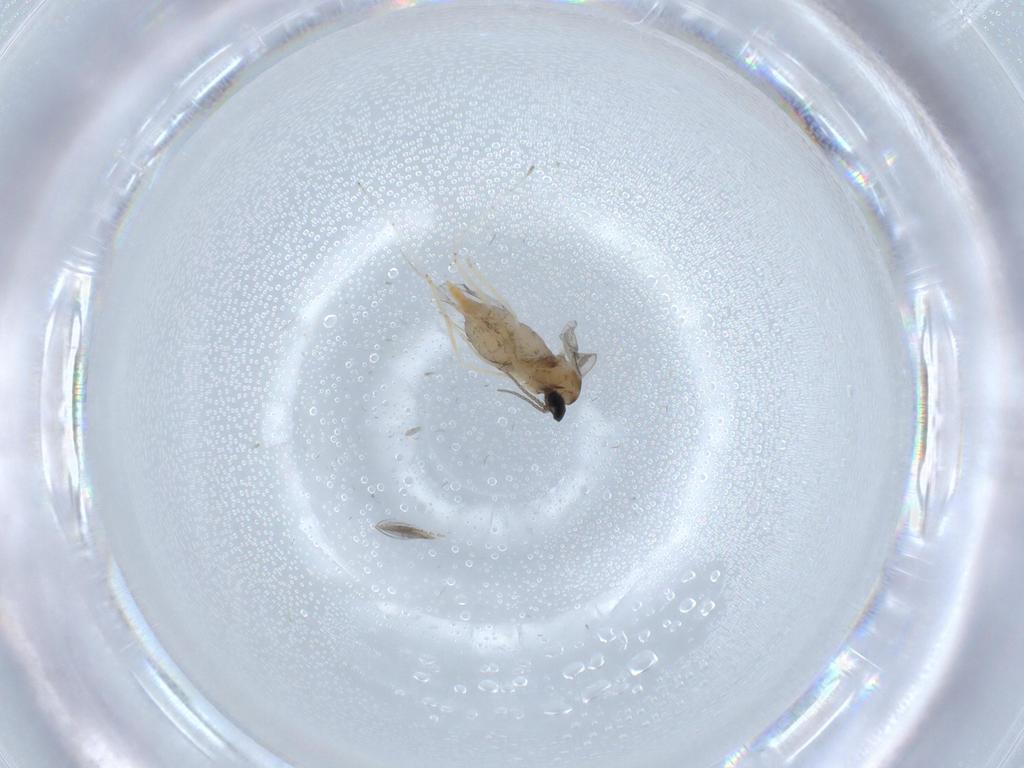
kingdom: Animalia
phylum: Arthropoda
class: Insecta
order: Diptera
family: Cecidomyiidae
